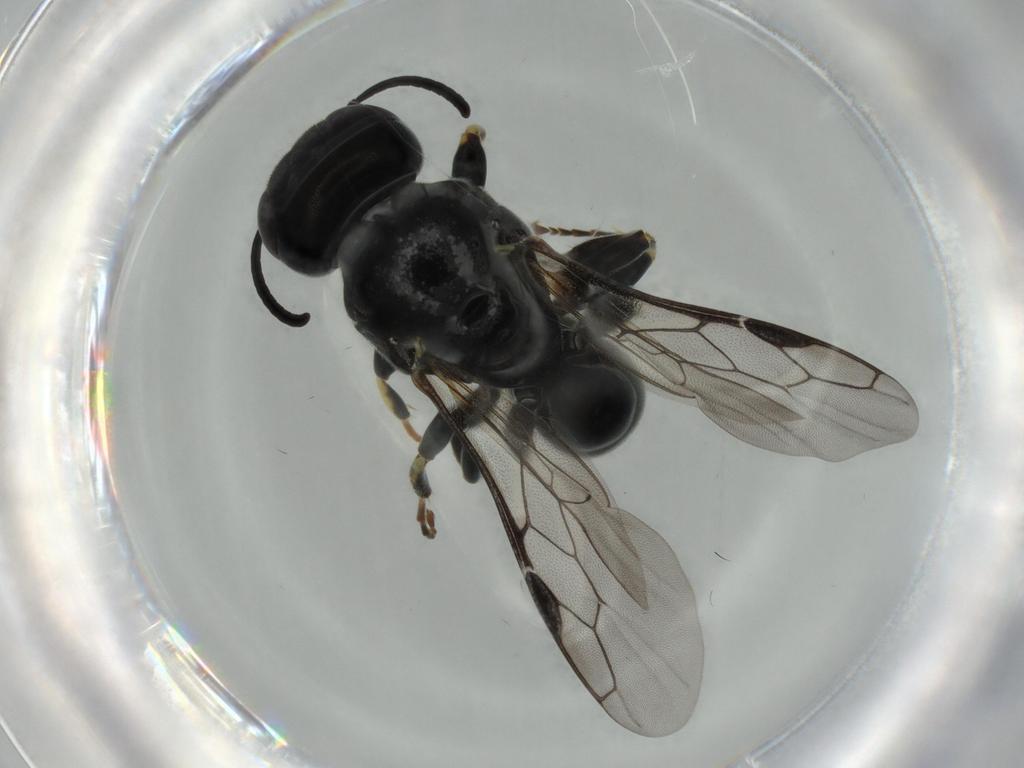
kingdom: Animalia
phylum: Arthropoda
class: Insecta
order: Hymenoptera
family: Crabronidae
